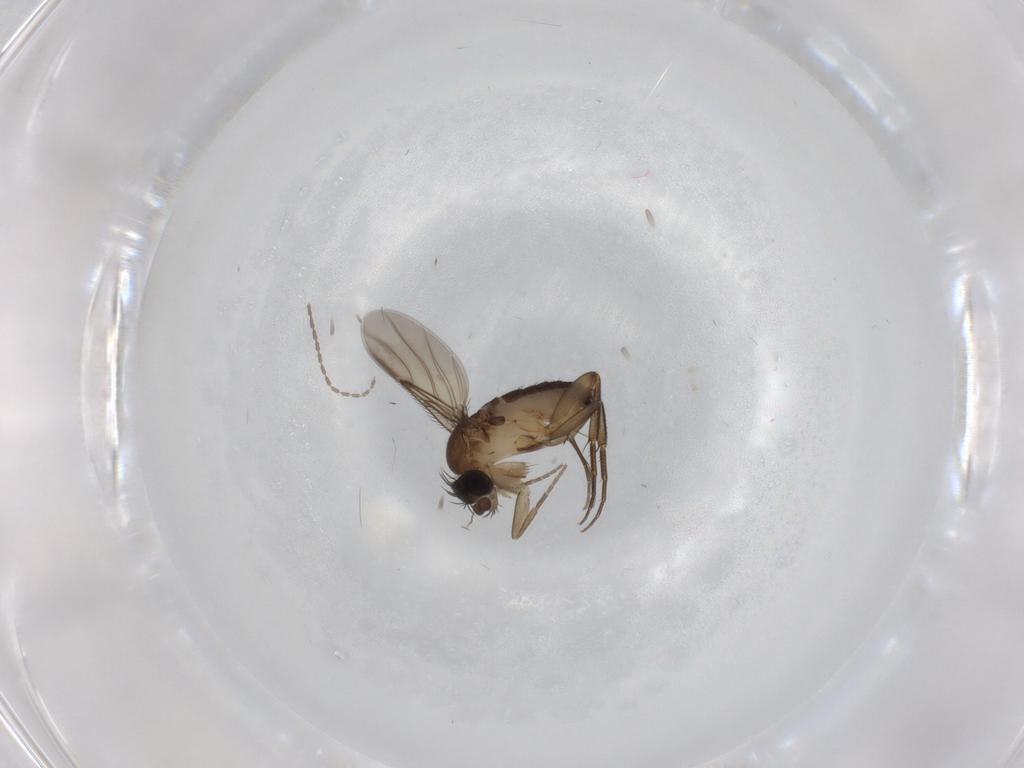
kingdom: Animalia
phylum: Arthropoda
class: Insecta
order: Diptera
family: Phoridae
